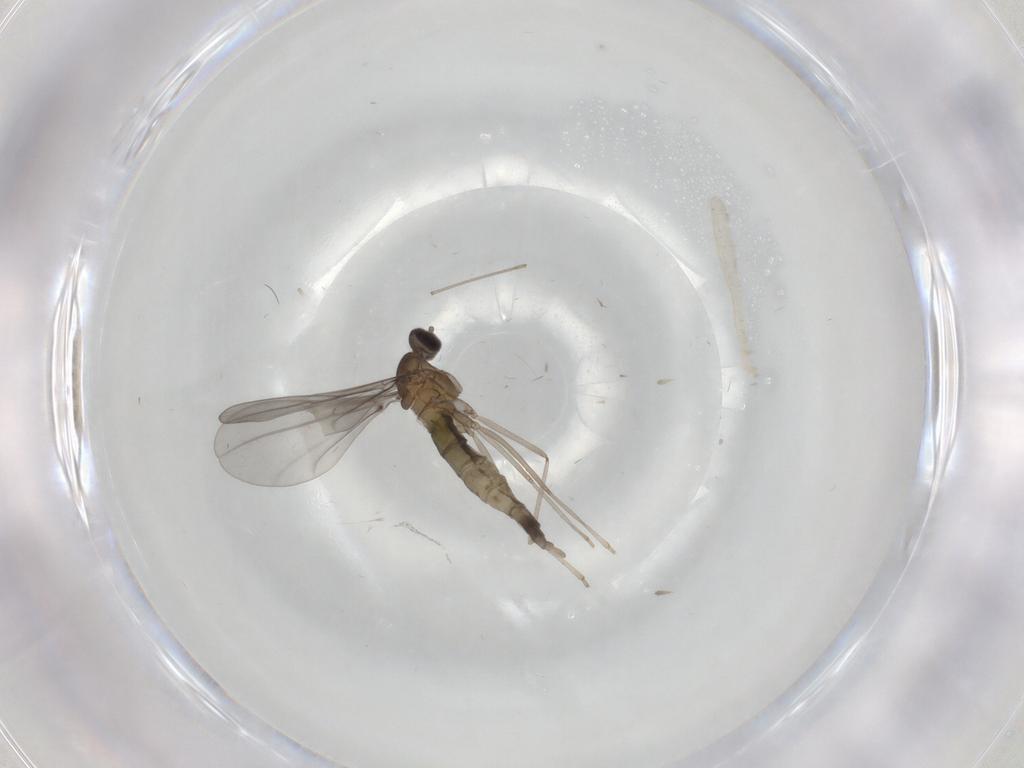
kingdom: Animalia
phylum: Arthropoda
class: Insecta
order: Diptera
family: Chironomidae
